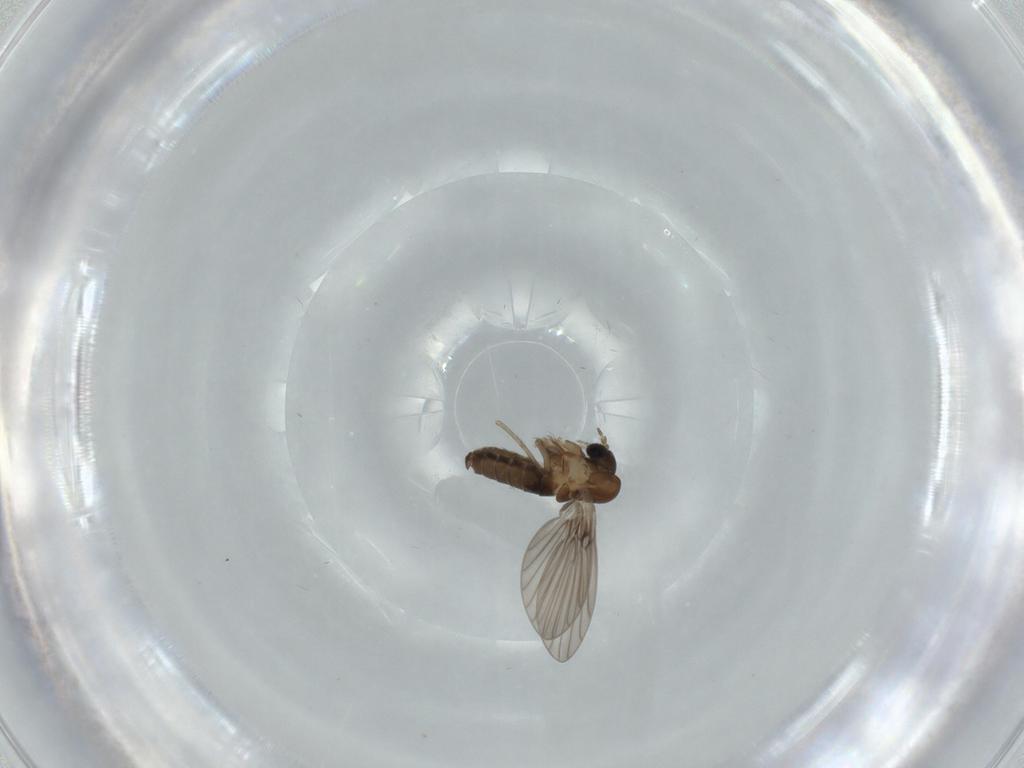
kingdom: Animalia
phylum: Arthropoda
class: Insecta
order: Diptera
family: Psychodidae
